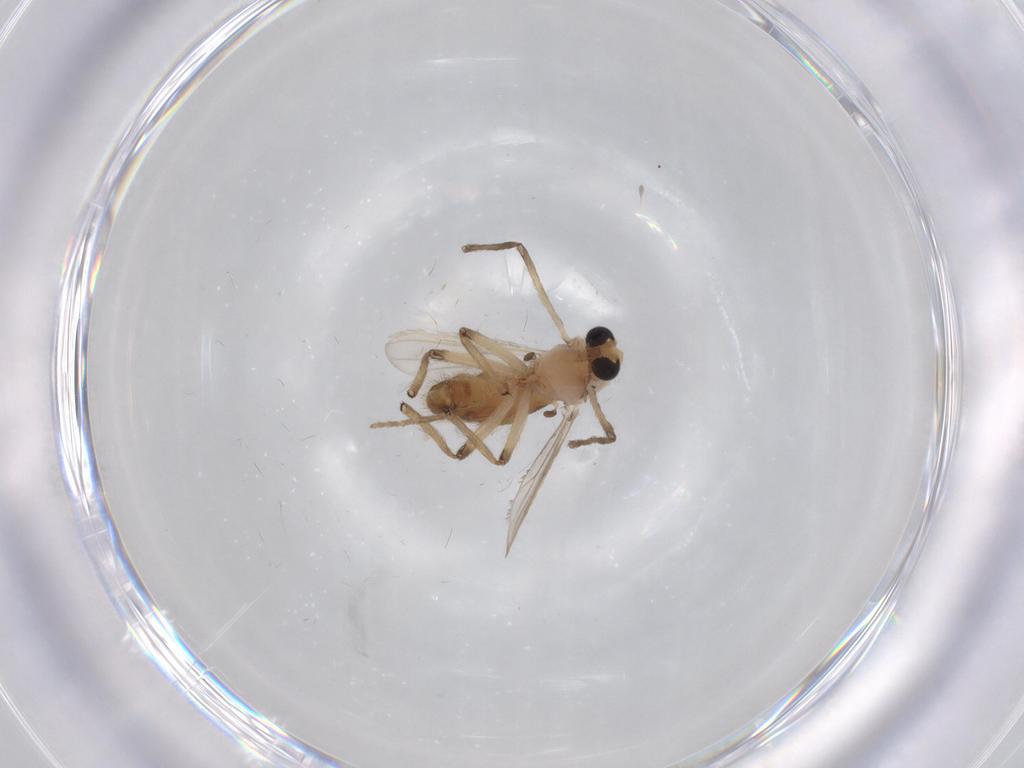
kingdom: Animalia
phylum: Arthropoda
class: Insecta
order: Diptera
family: Chironomidae
